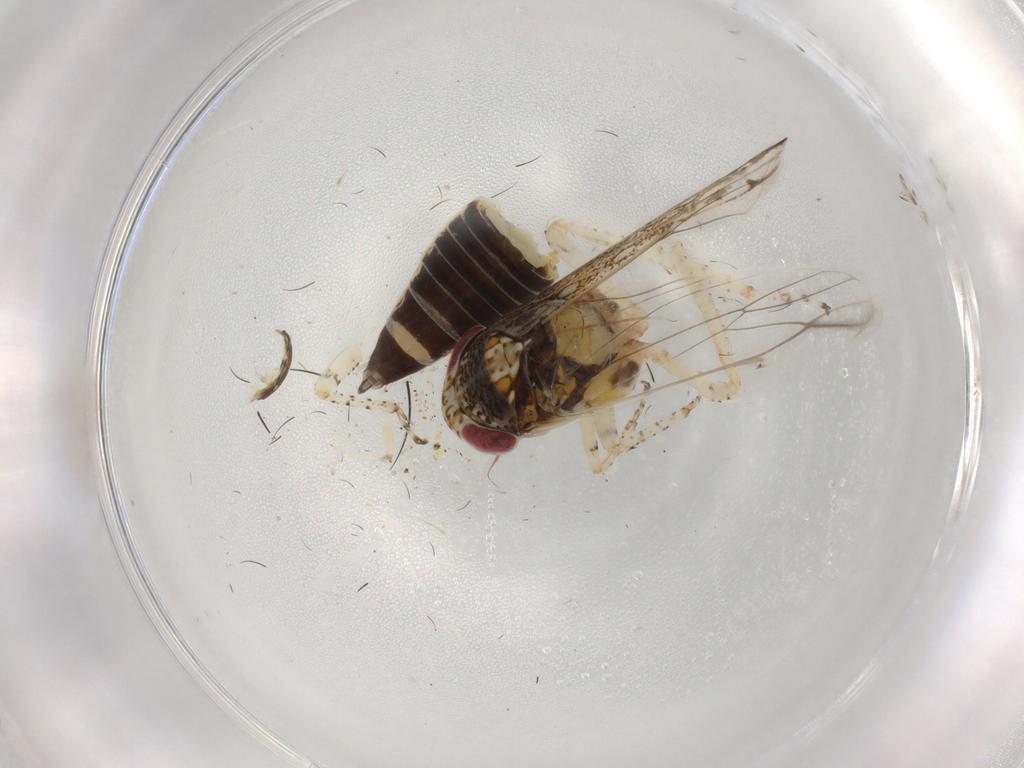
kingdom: Animalia
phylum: Arthropoda
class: Insecta
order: Hemiptera
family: Cicadellidae
